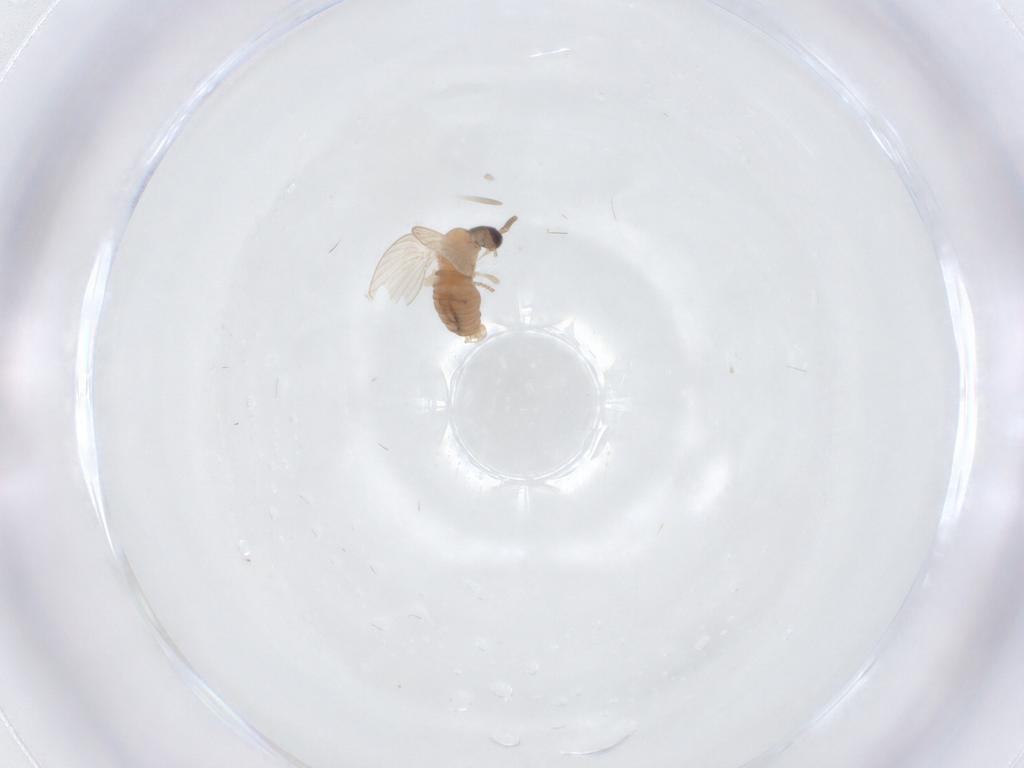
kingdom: Animalia
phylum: Arthropoda
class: Insecta
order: Diptera
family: Psychodidae
